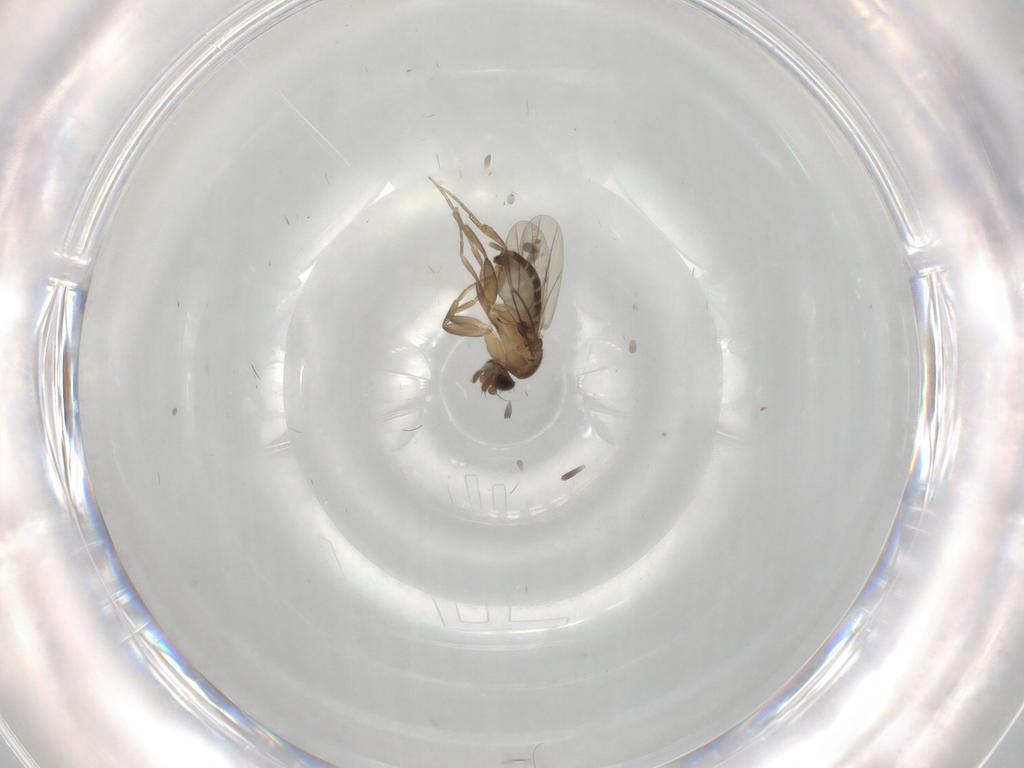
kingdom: Animalia
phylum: Arthropoda
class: Insecta
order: Diptera
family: Phoridae
